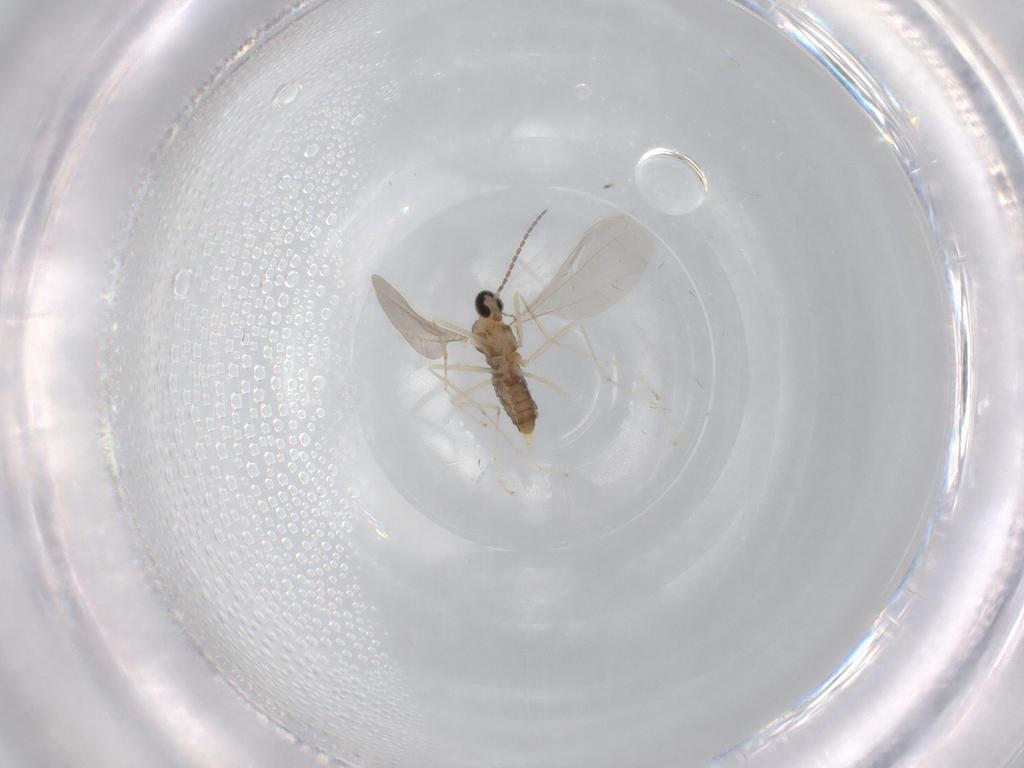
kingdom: Animalia
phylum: Arthropoda
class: Insecta
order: Diptera
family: Cecidomyiidae
